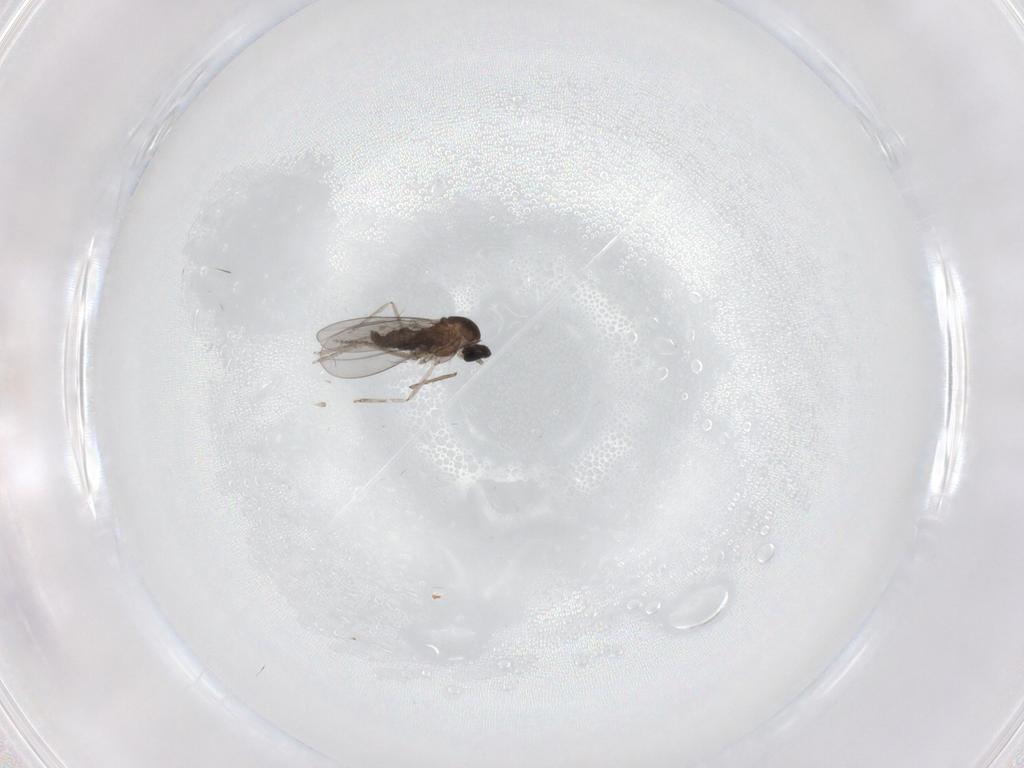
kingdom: Animalia
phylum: Arthropoda
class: Insecta
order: Diptera
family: Cecidomyiidae
